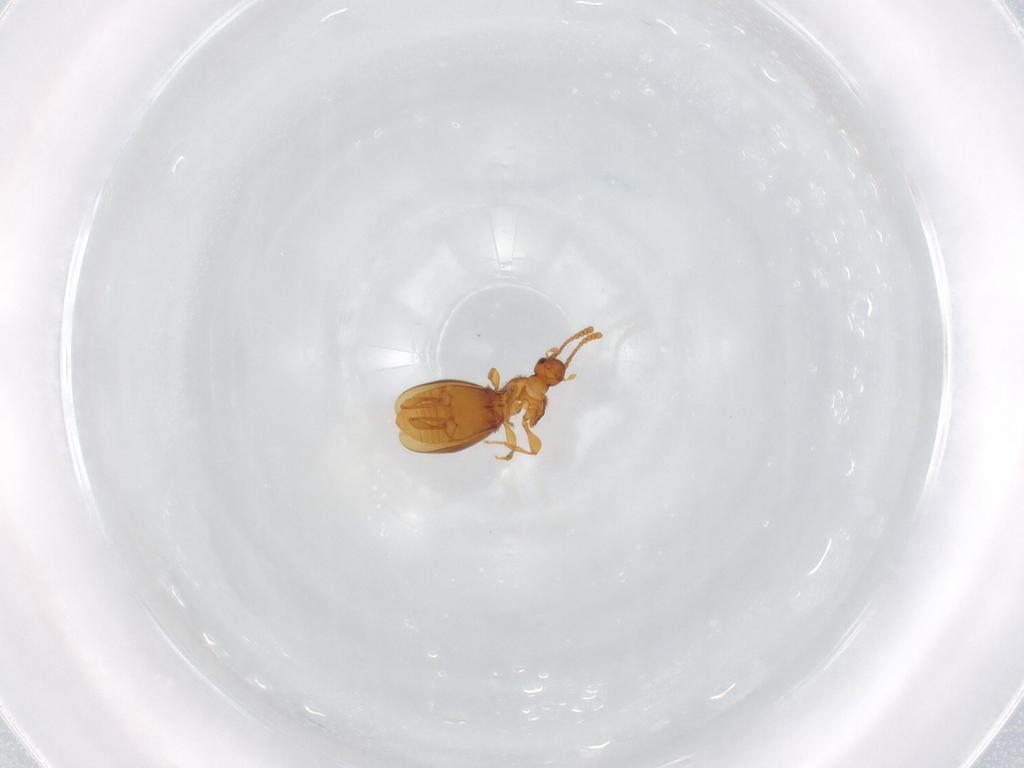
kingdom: Animalia
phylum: Arthropoda
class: Insecta
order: Coleoptera
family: Staphylinidae
